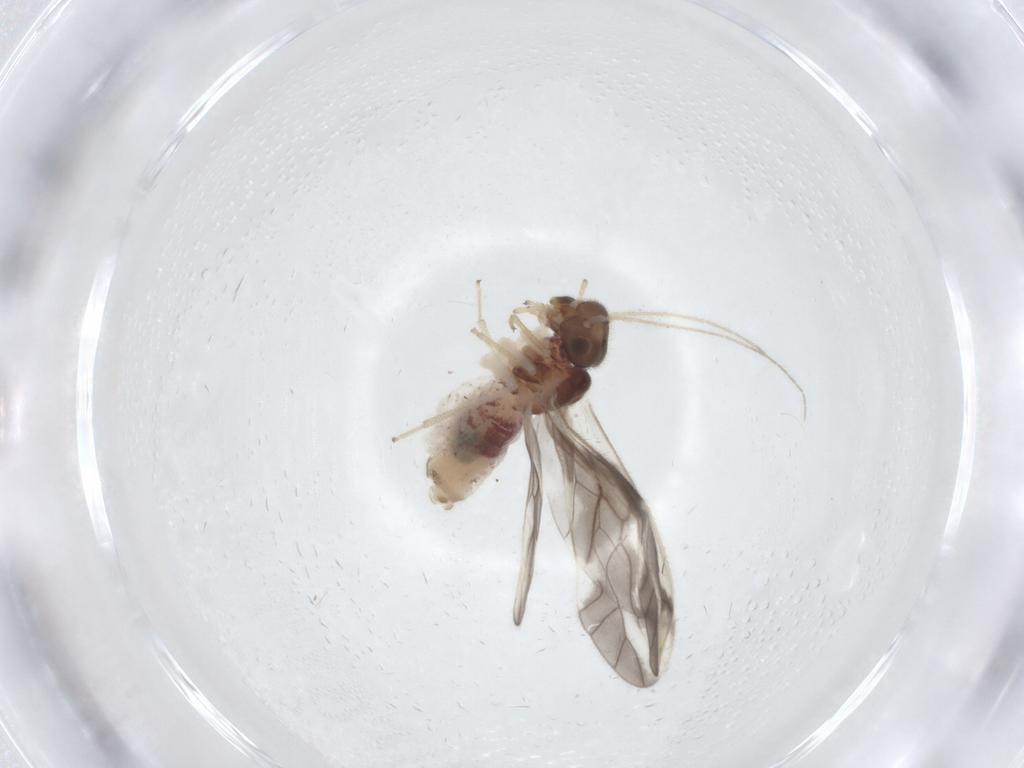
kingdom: Animalia
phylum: Arthropoda
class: Insecta
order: Psocodea
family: Caeciliusidae
